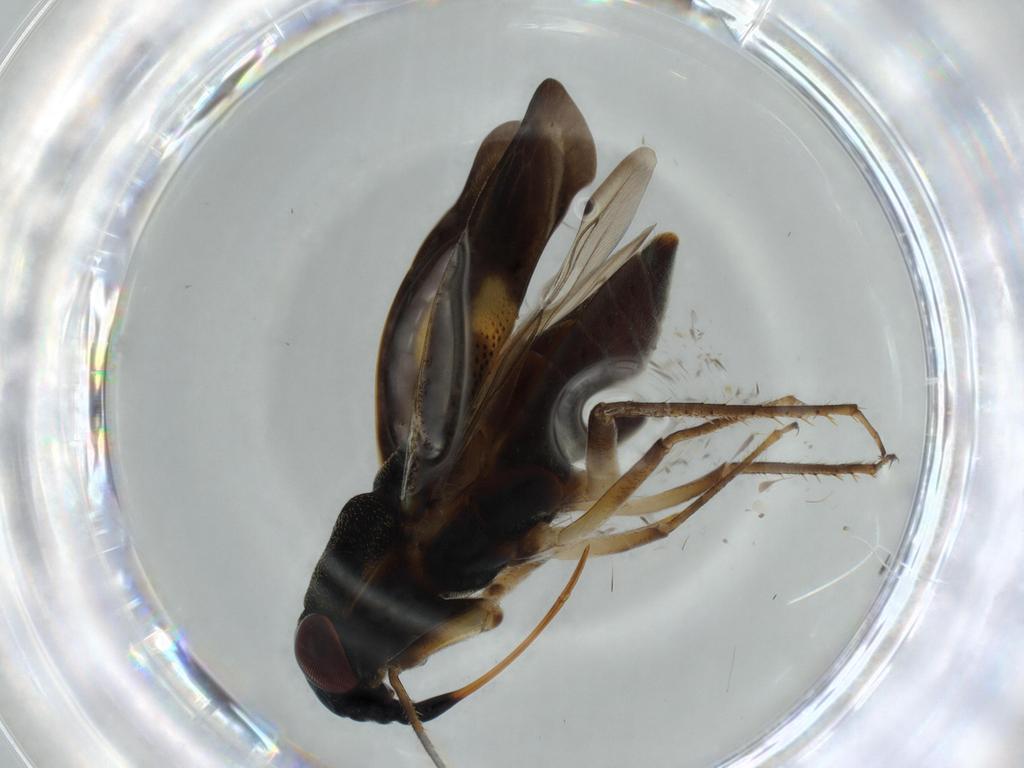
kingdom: Animalia
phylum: Arthropoda
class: Insecta
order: Hemiptera
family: Ochteridae
